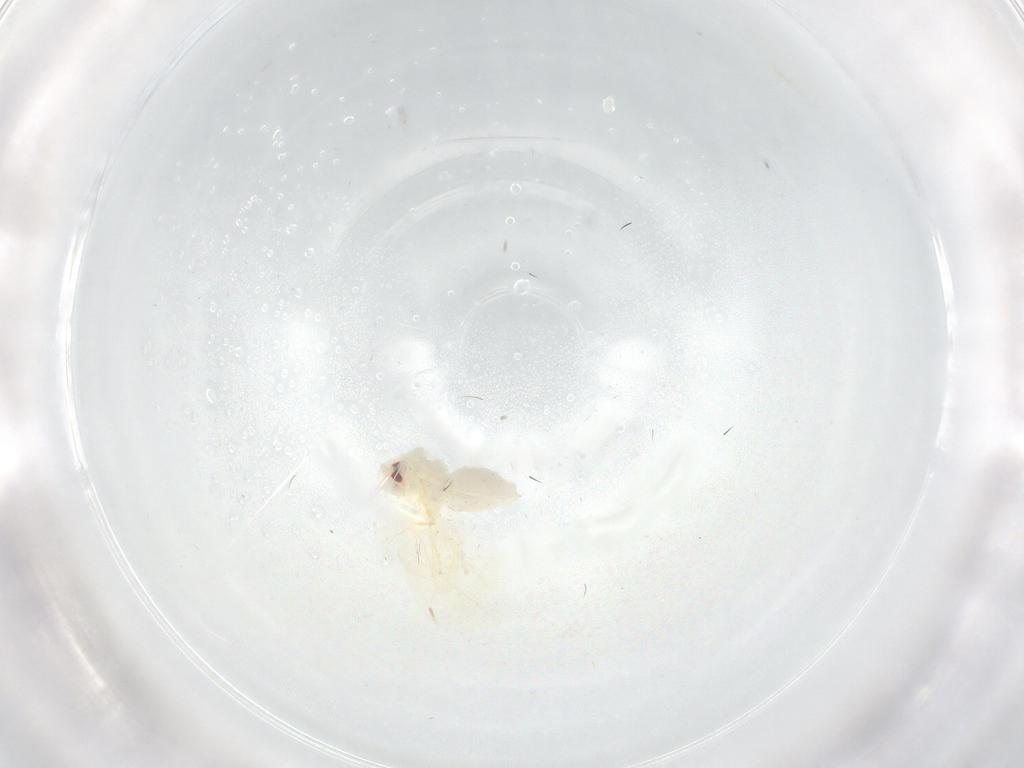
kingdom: Animalia
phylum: Arthropoda
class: Insecta
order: Hemiptera
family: Aleyrodidae
